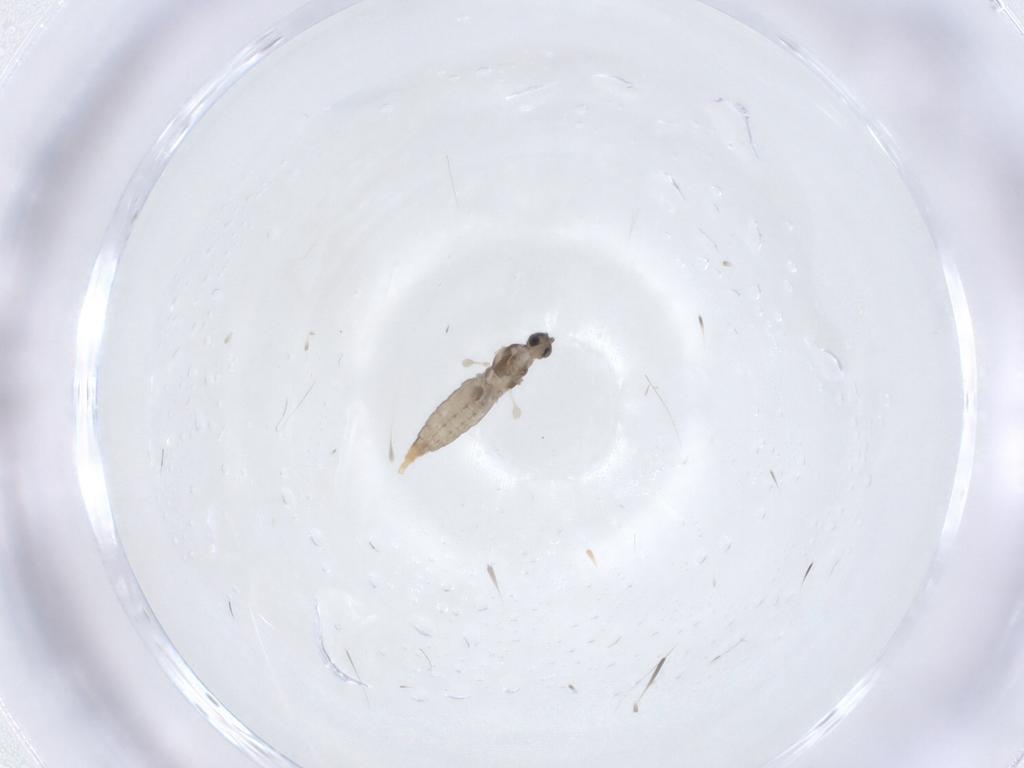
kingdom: Animalia
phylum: Arthropoda
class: Insecta
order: Diptera
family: Cecidomyiidae
